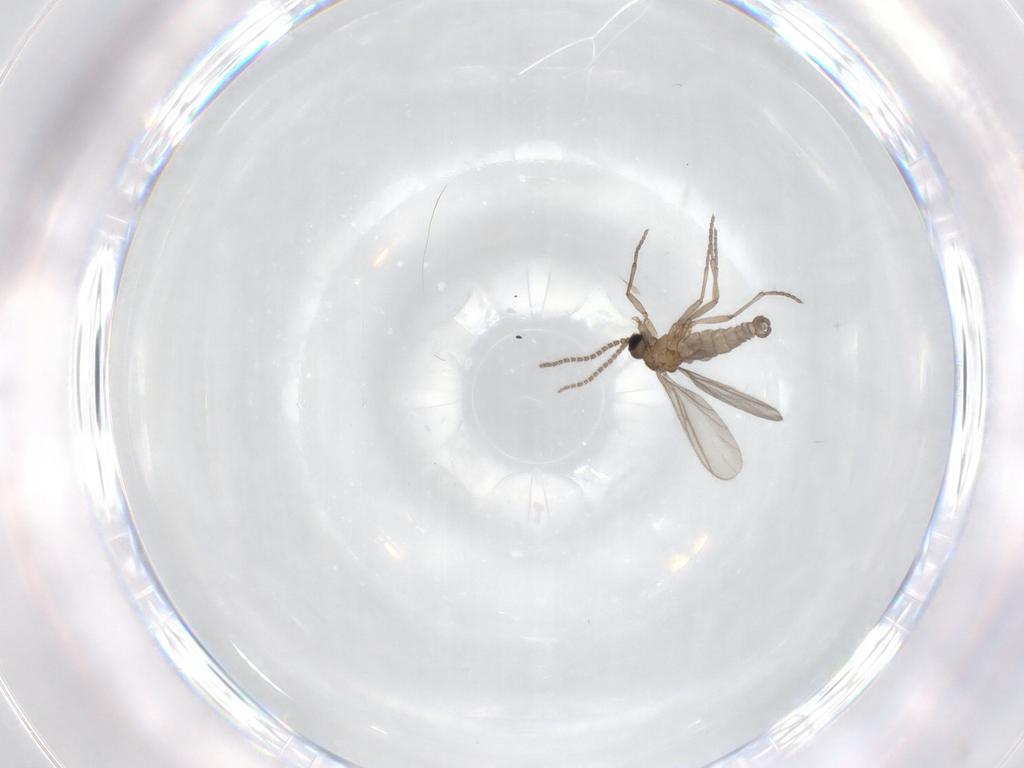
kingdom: Animalia
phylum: Arthropoda
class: Insecta
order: Diptera
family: Sciaridae
